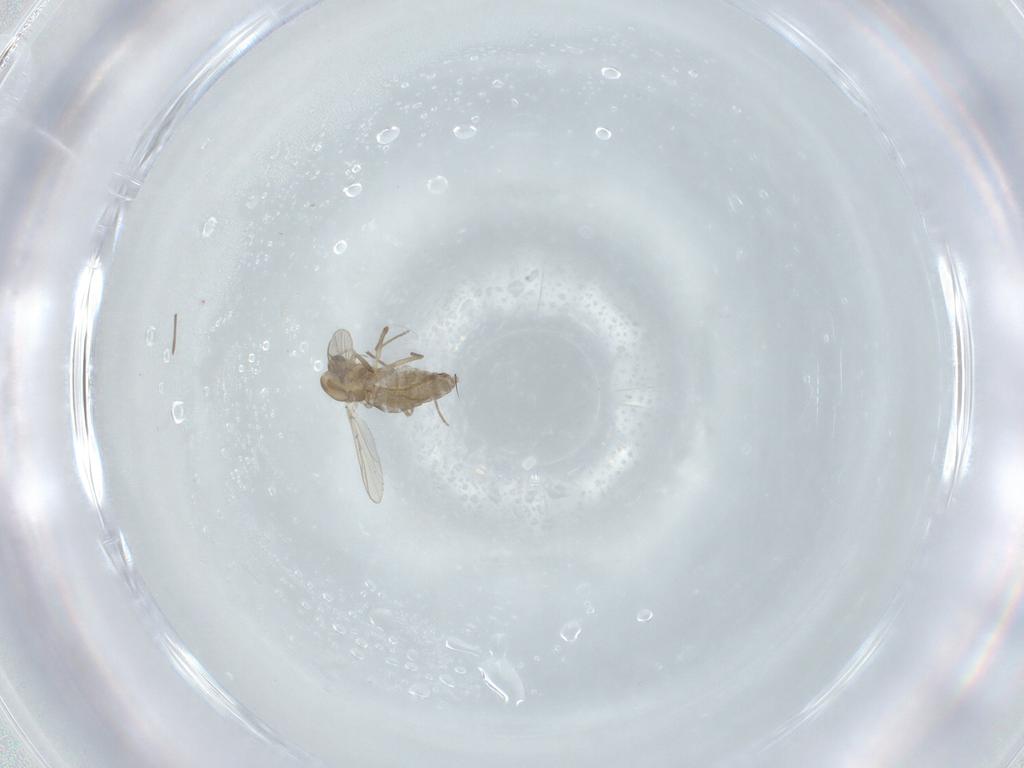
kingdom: Animalia
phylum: Arthropoda
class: Insecta
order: Diptera
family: Chironomidae
